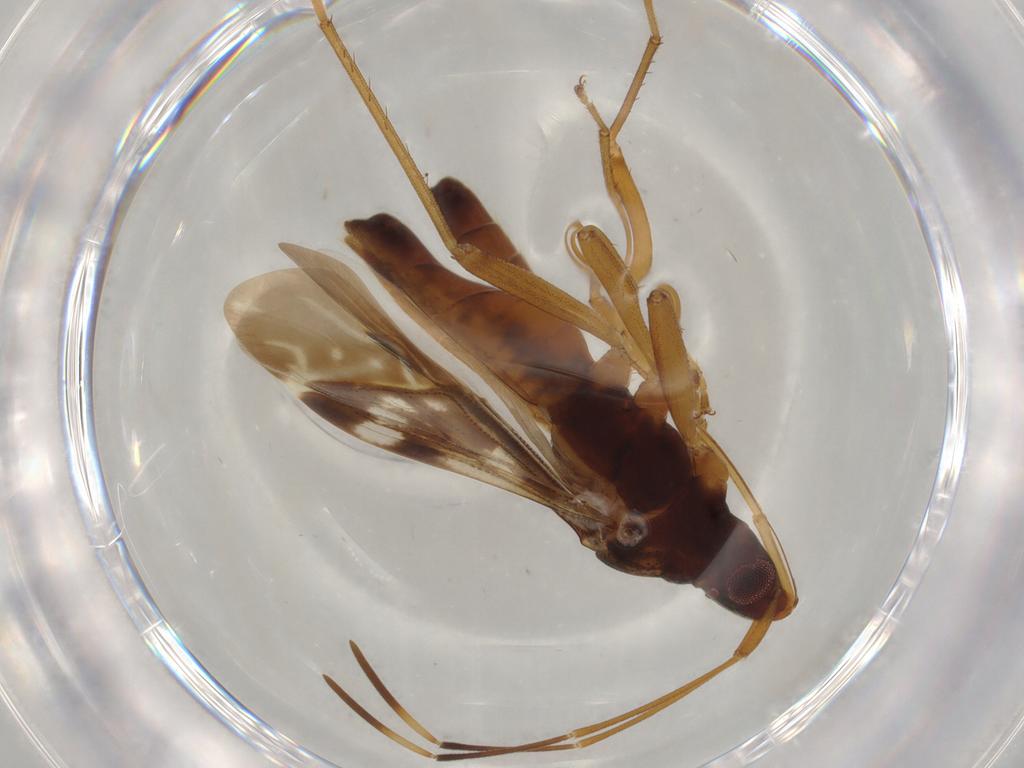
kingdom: Animalia
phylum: Arthropoda
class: Insecta
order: Hemiptera
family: Rhyparochromidae
